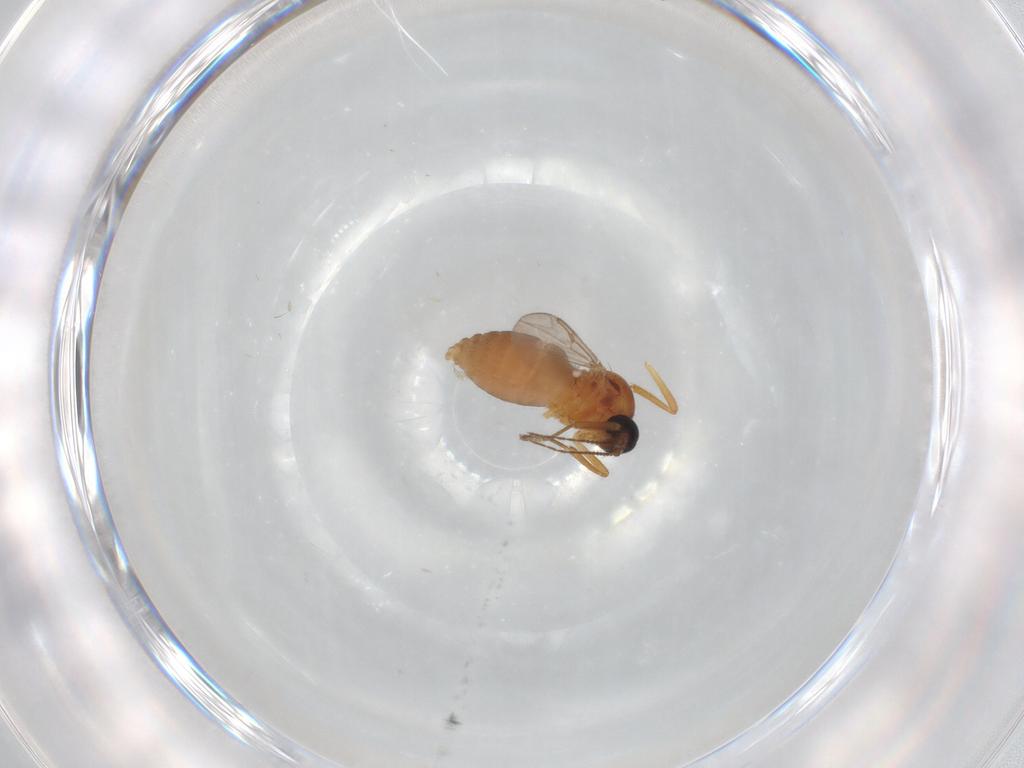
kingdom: Animalia
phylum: Arthropoda
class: Insecta
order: Diptera
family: Ceratopogonidae
